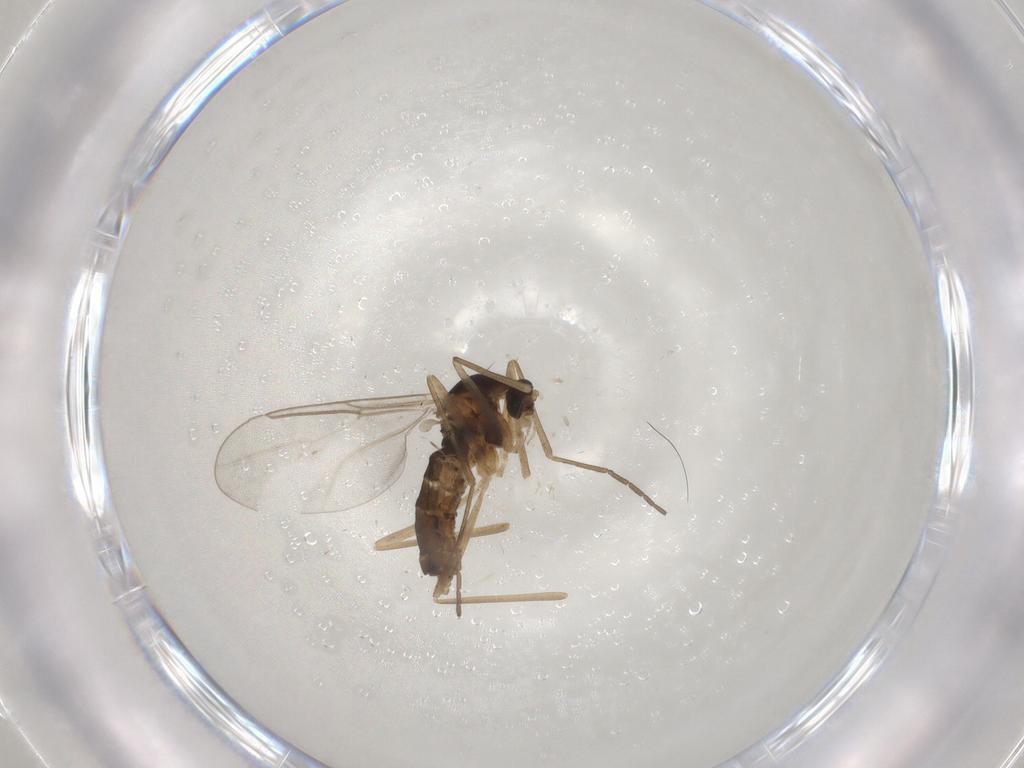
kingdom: Animalia
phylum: Arthropoda
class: Insecta
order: Diptera
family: Cecidomyiidae
